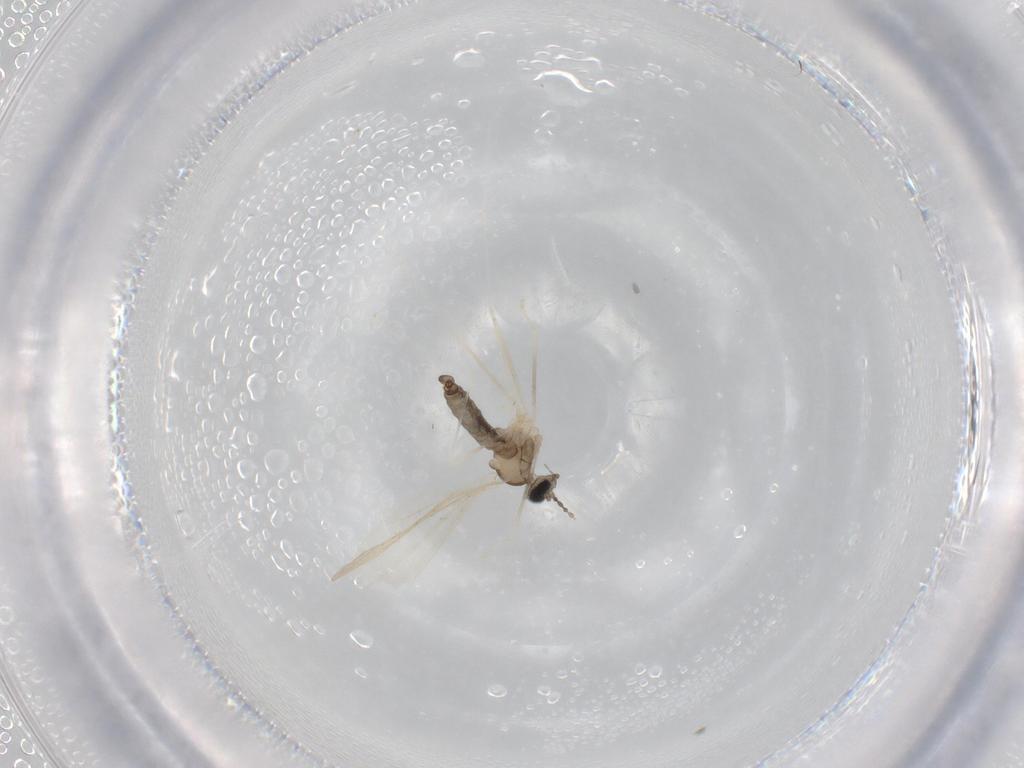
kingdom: Animalia
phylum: Arthropoda
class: Insecta
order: Diptera
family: Cecidomyiidae
